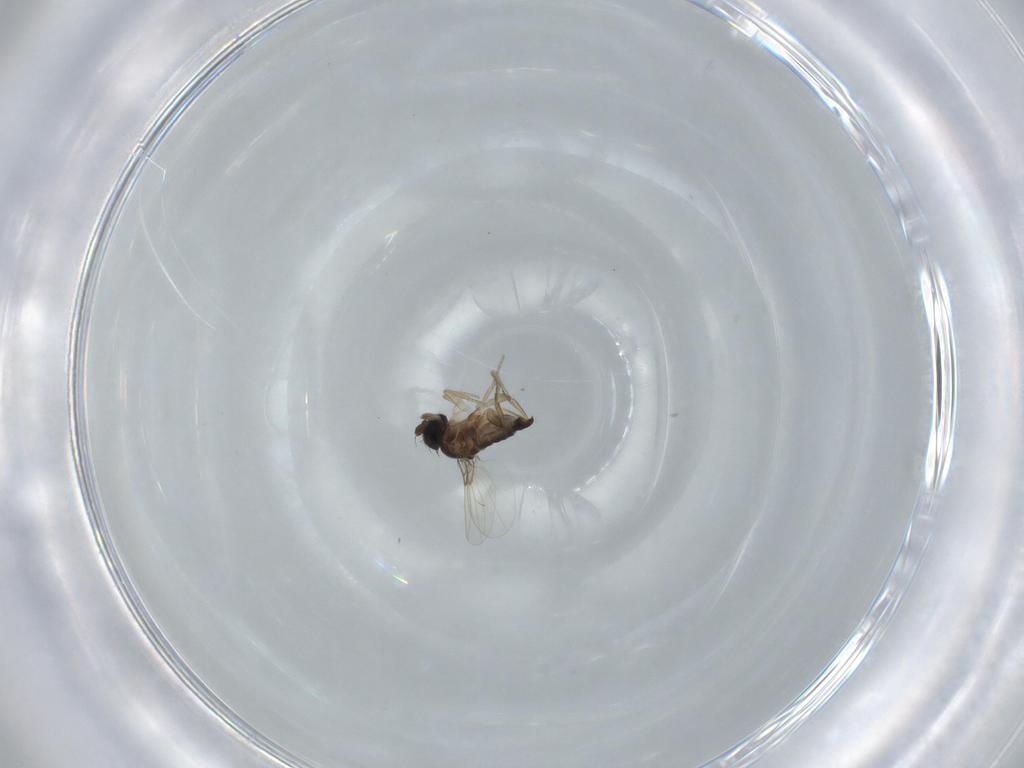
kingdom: Animalia
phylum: Arthropoda
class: Insecta
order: Diptera
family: Phoridae
